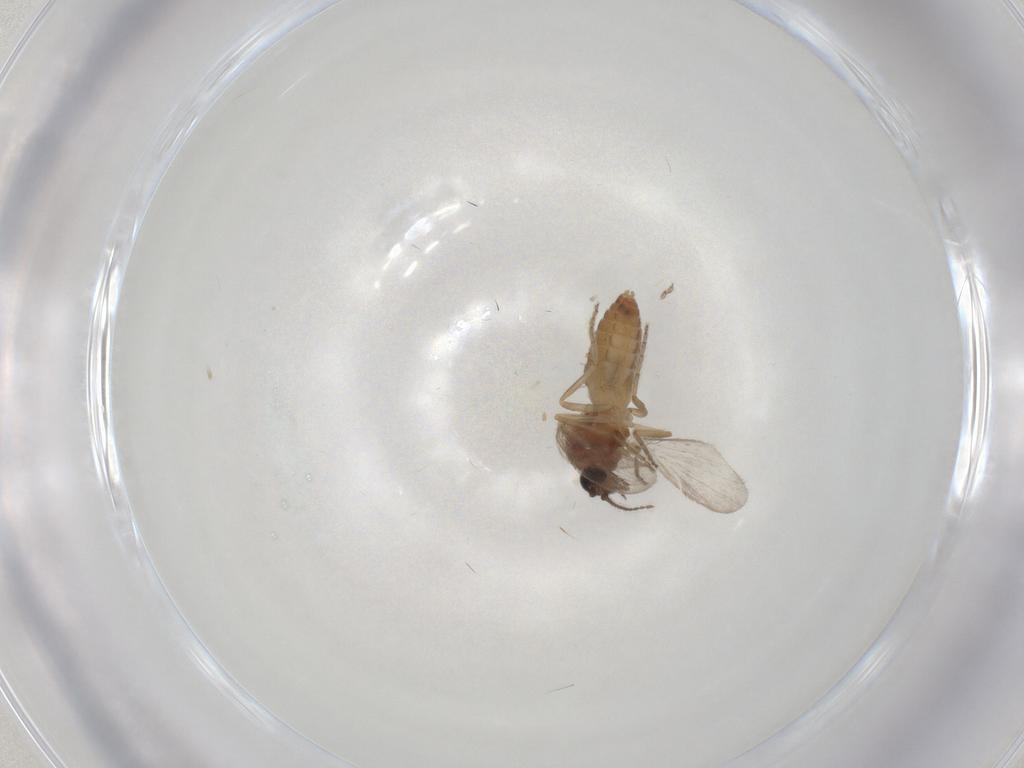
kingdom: Animalia
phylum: Arthropoda
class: Insecta
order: Diptera
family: Ceratopogonidae
